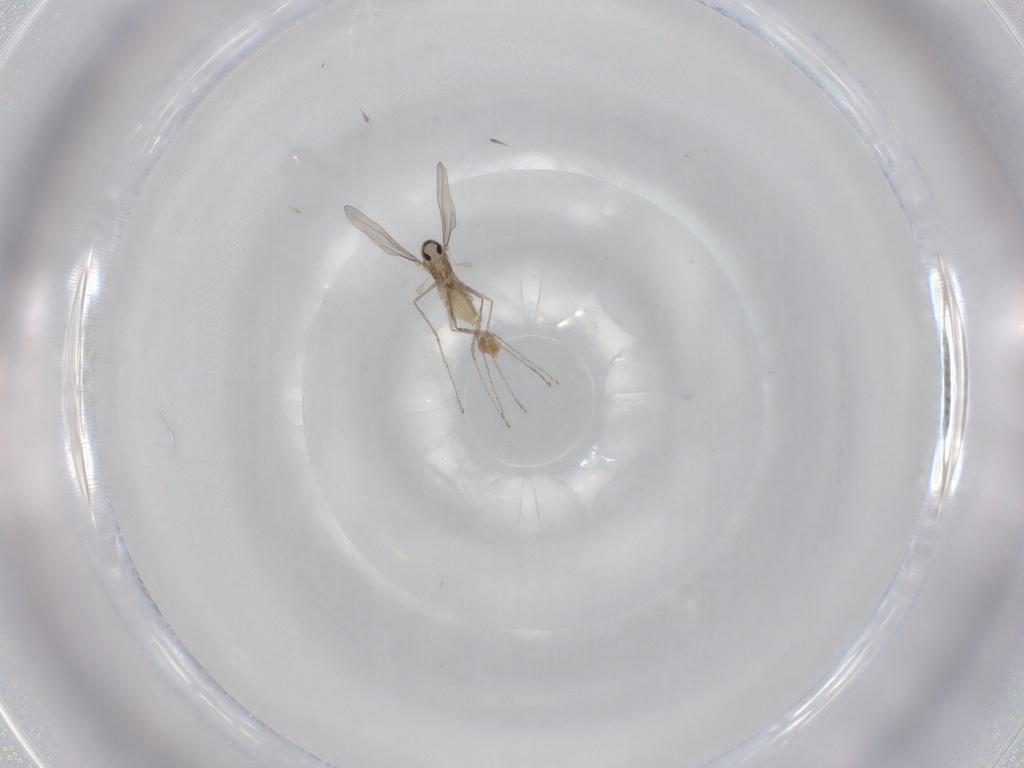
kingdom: Animalia
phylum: Arthropoda
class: Insecta
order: Diptera
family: Cecidomyiidae
